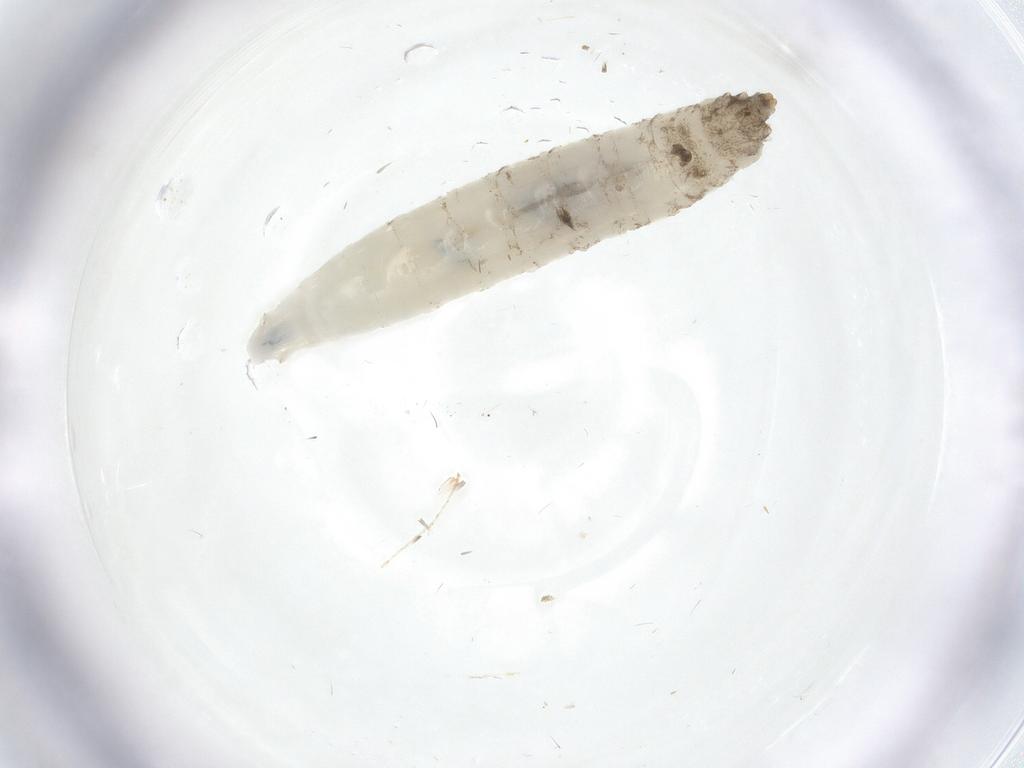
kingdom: Animalia
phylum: Arthropoda
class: Insecta
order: Diptera
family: Drosophilidae
